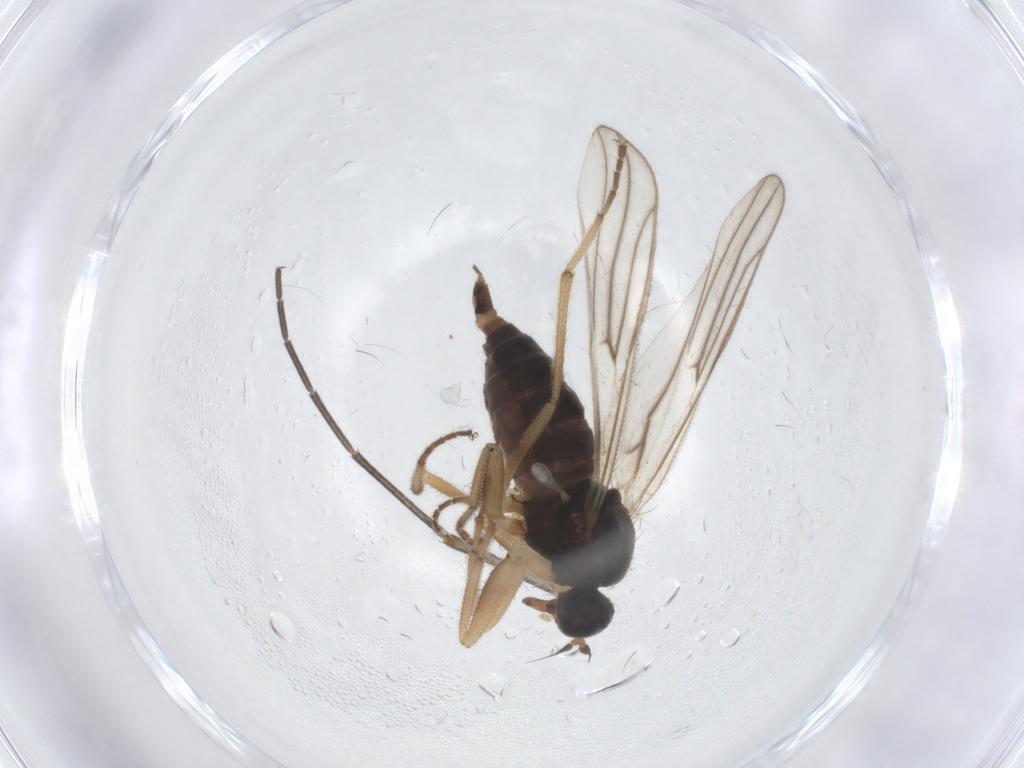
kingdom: Animalia
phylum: Arthropoda
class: Insecta
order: Diptera
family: Hybotidae
